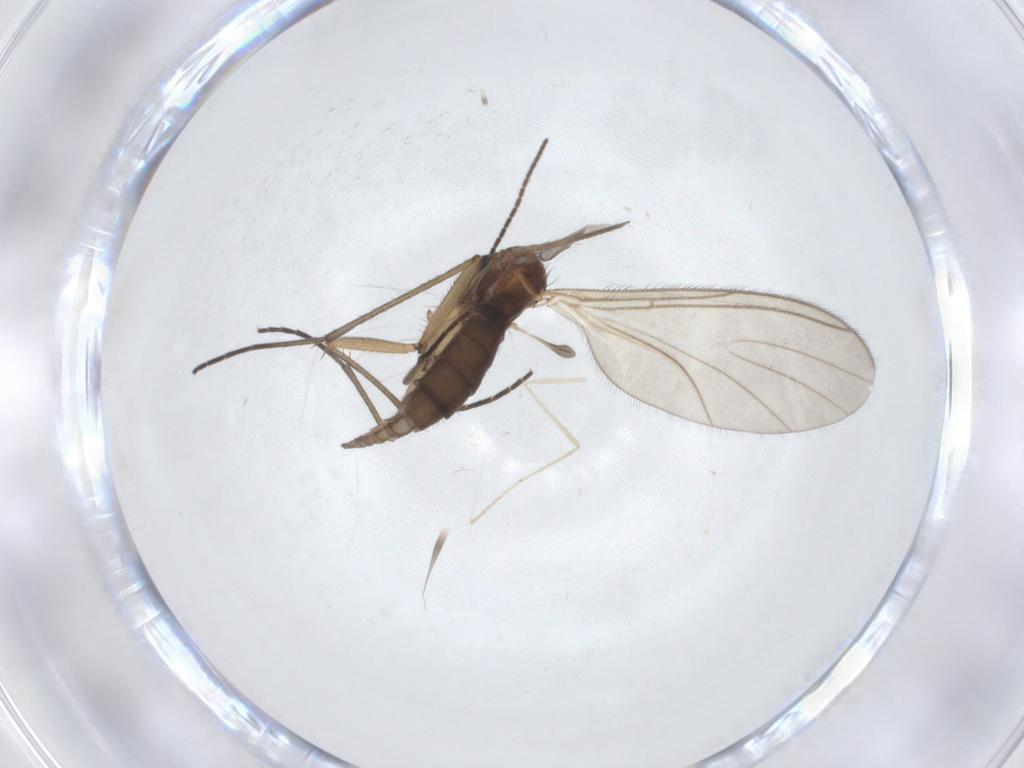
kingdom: Animalia
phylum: Arthropoda
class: Insecta
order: Diptera
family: Sciaridae
